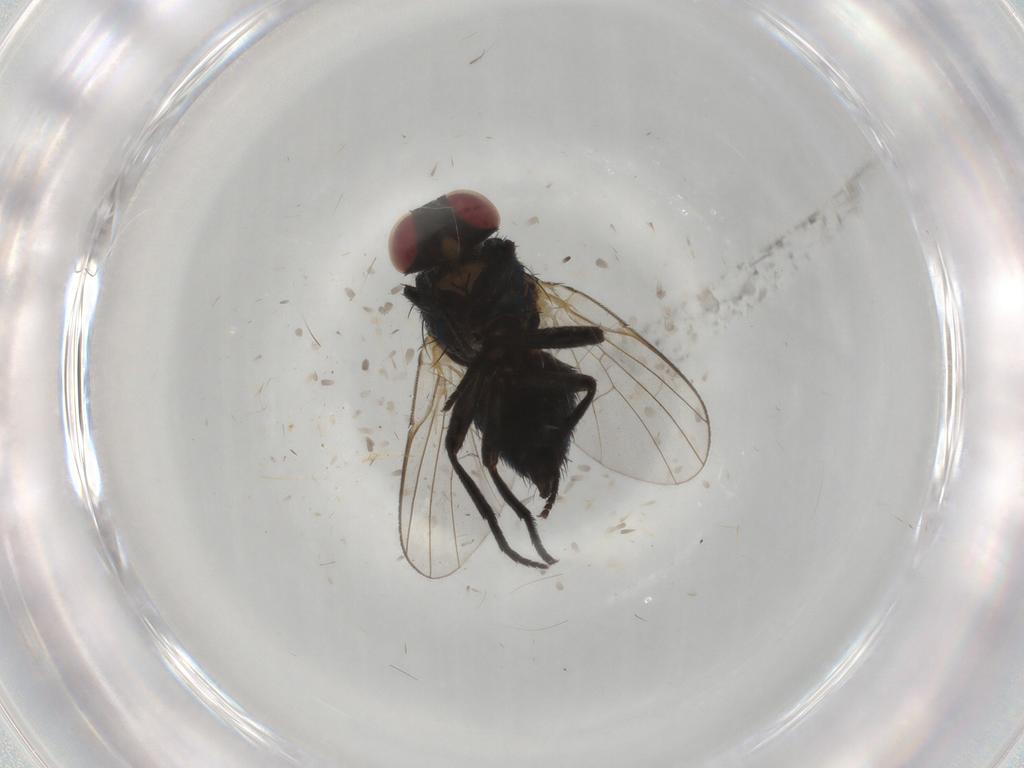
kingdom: Animalia
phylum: Arthropoda
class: Insecta
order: Diptera
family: Agromyzidae
